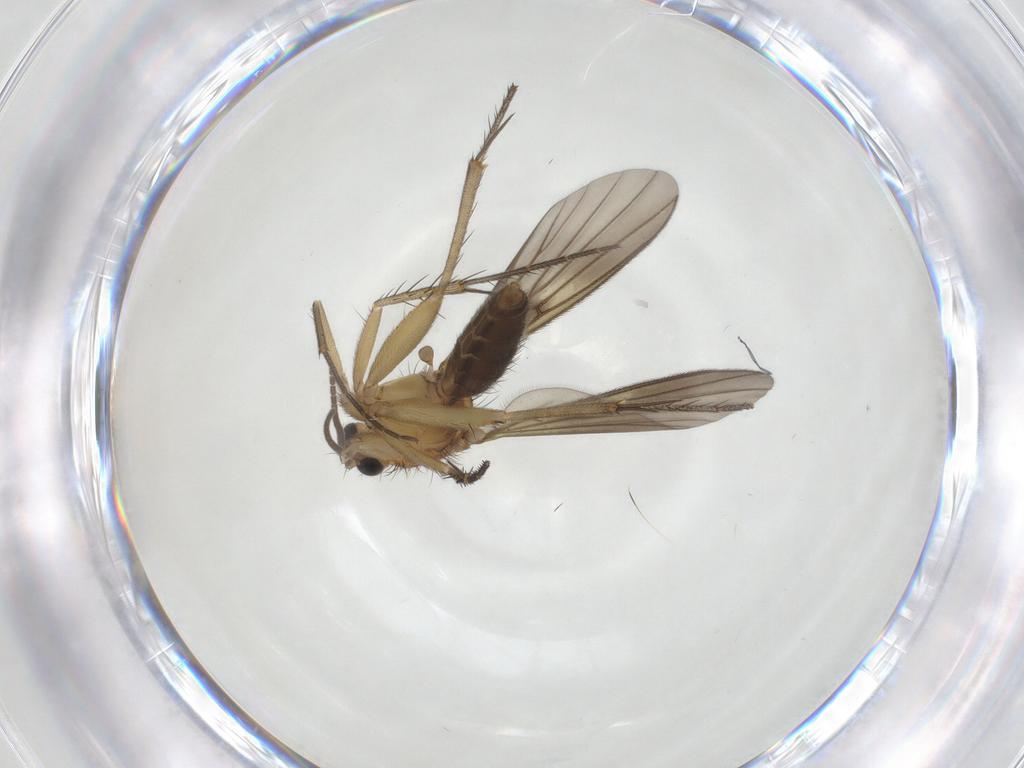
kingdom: Animalia
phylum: Arthropoda
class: Insecta
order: Diptera
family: Mycetophilidae
